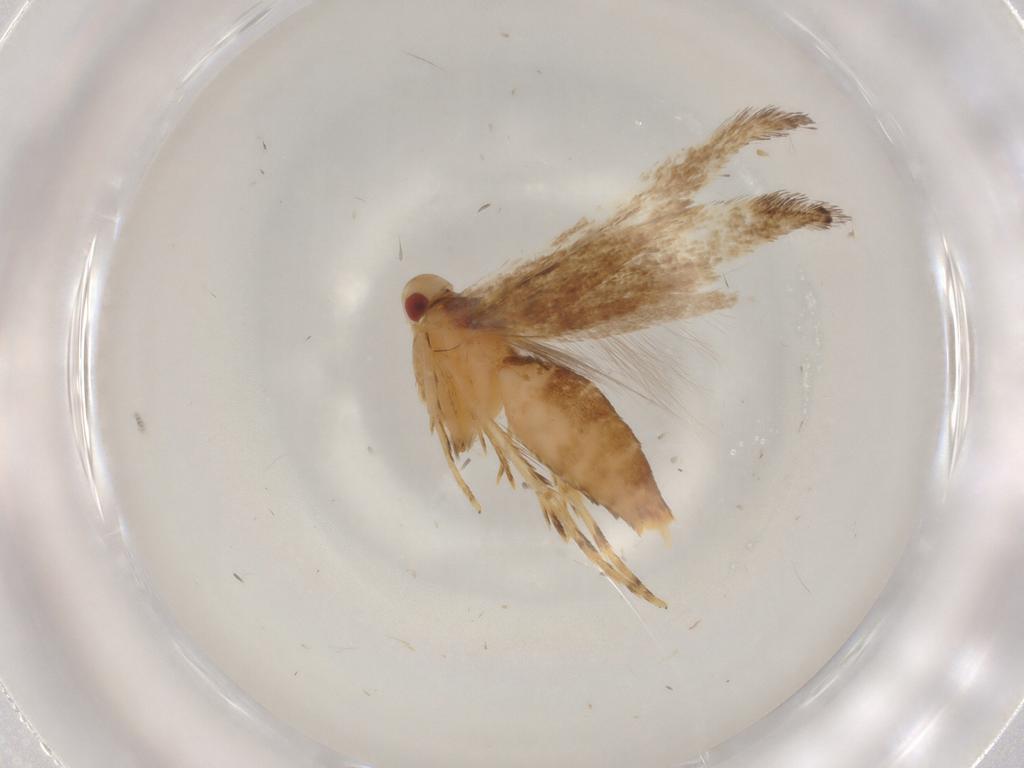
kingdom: Animalia
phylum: Arthropoda
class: Insecta
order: Lepidoptera
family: Cosmopterigidae
